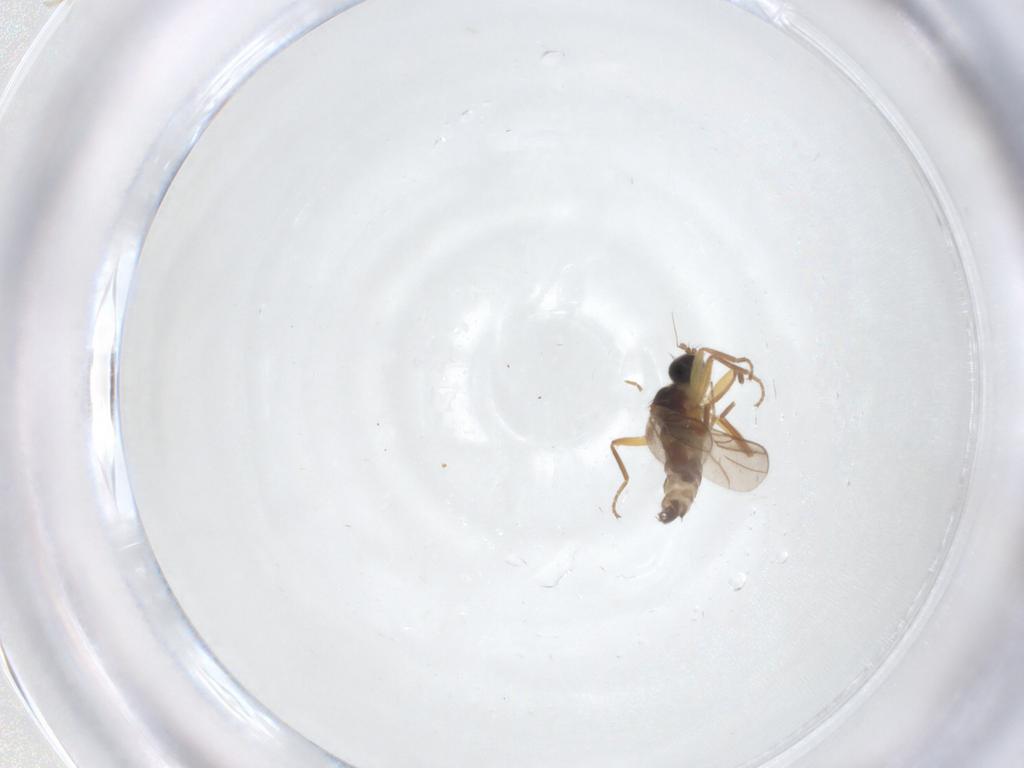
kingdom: Animalia
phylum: Arthropoda
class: Insecta
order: Diptera
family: Hybotidae
